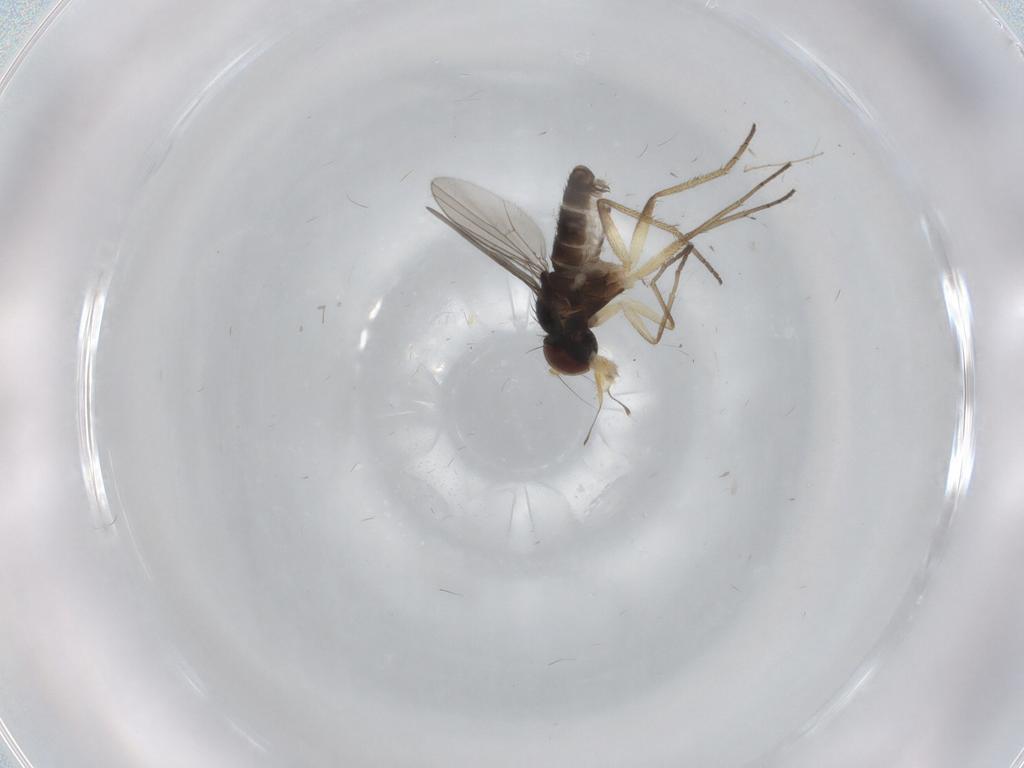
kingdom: Animalia
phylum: Arthropoda
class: Insecta
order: Diptera
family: Dolichopodidae
